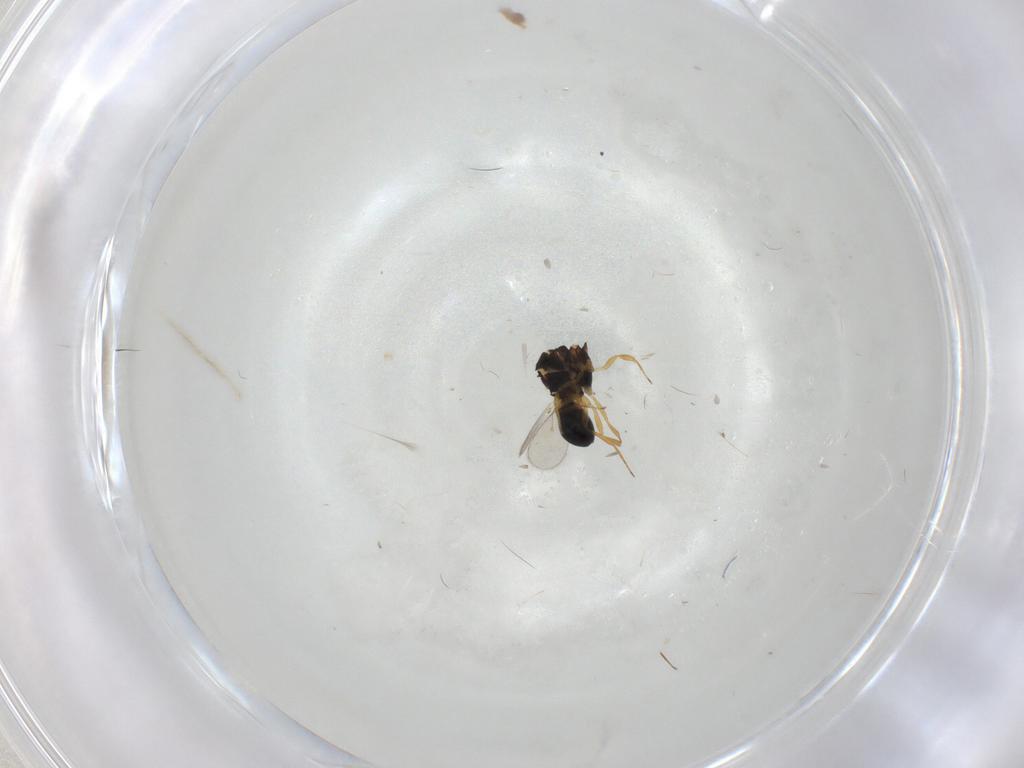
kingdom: Animalia
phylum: Arthropoda
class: Insecta
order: Hymenoptera
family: Scelionidae
